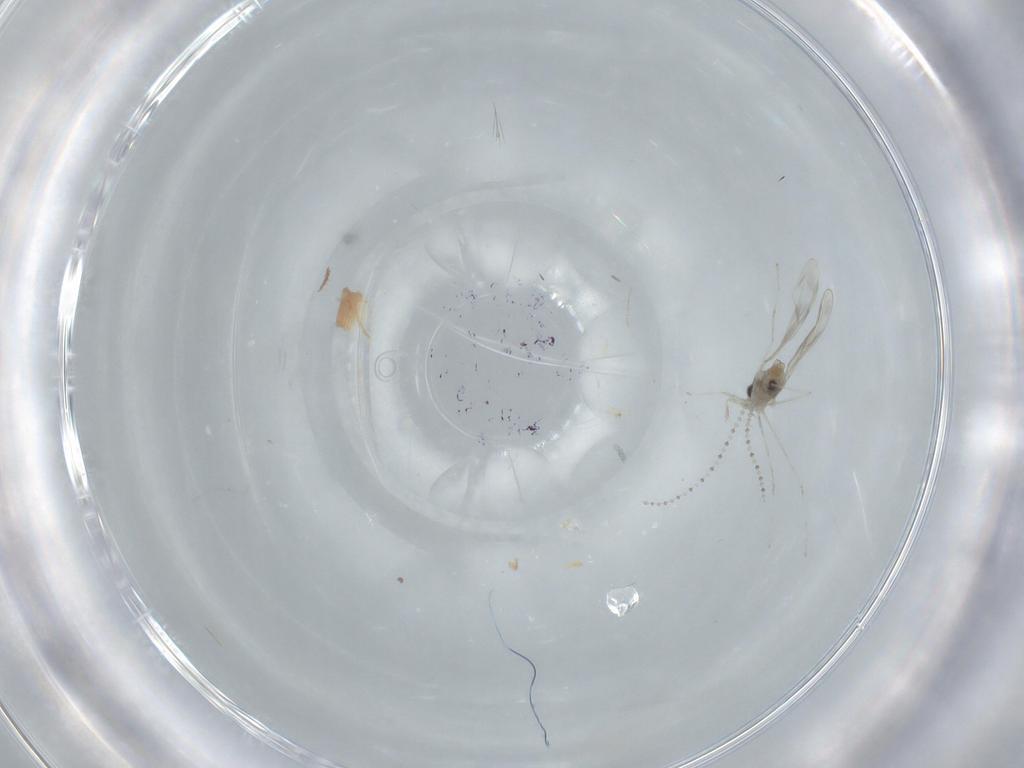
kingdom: Animalia
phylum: Arthropoda
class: Insecta
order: Diptera
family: Cecidomyiidae
